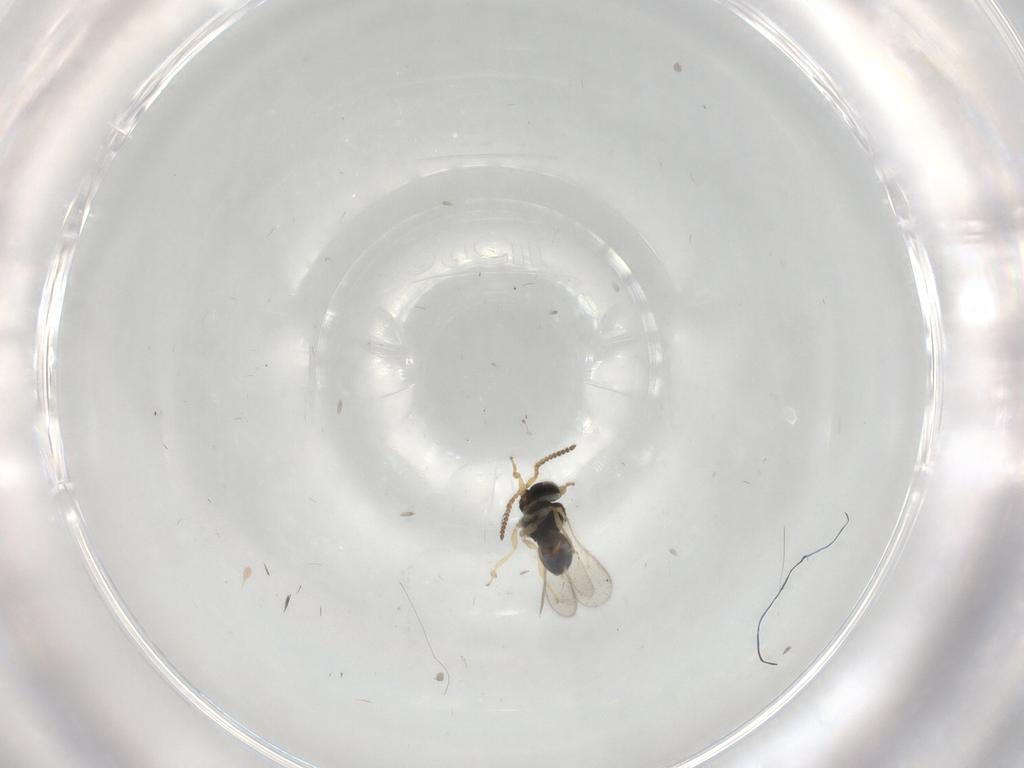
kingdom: Animalia
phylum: Arthropoda
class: Insecta
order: Hymenoptera
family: Scelionidae
